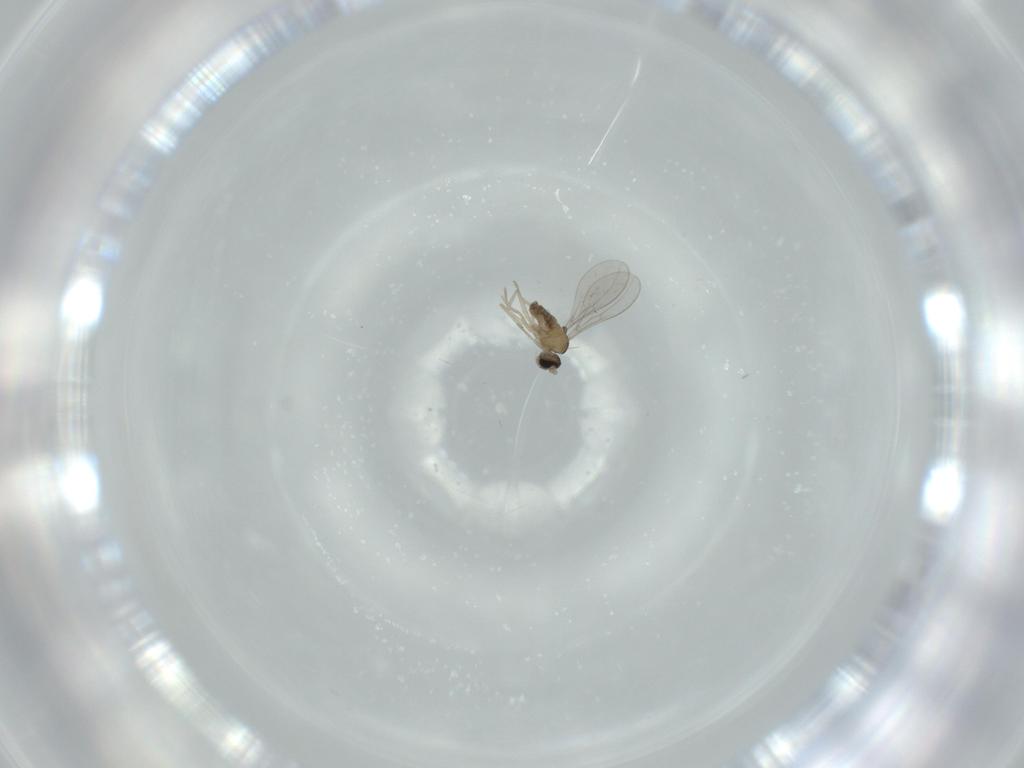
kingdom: Animalia
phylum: Arthropoda
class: Insecta
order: Diptera
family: Cecidomyiidae
